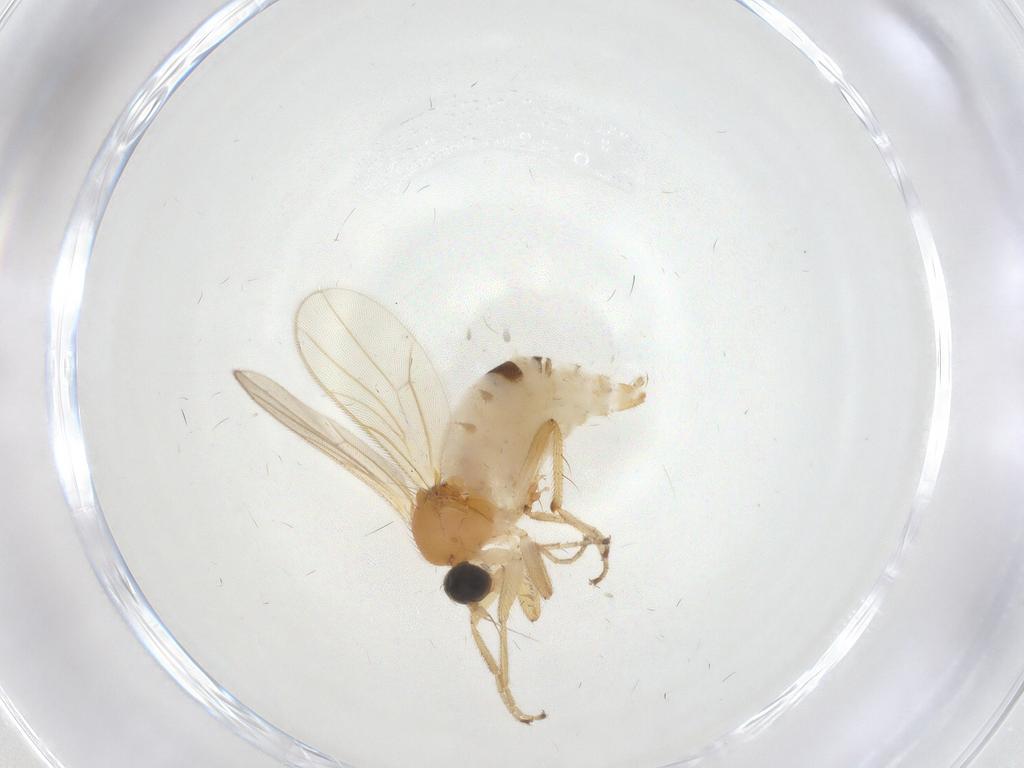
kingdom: Animalia
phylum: Arthropoda
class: Insecta
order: Diptera
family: Hybotidae
